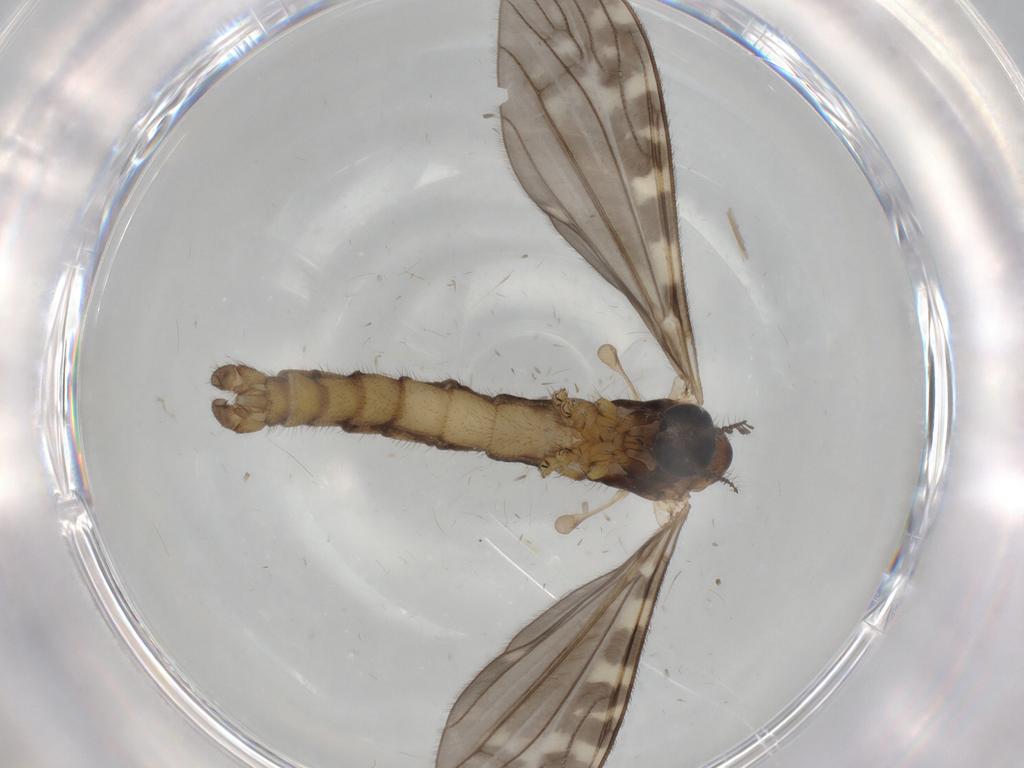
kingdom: Animalia
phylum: Arthropoda
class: Insecta
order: Diptera
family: Limoniidae
